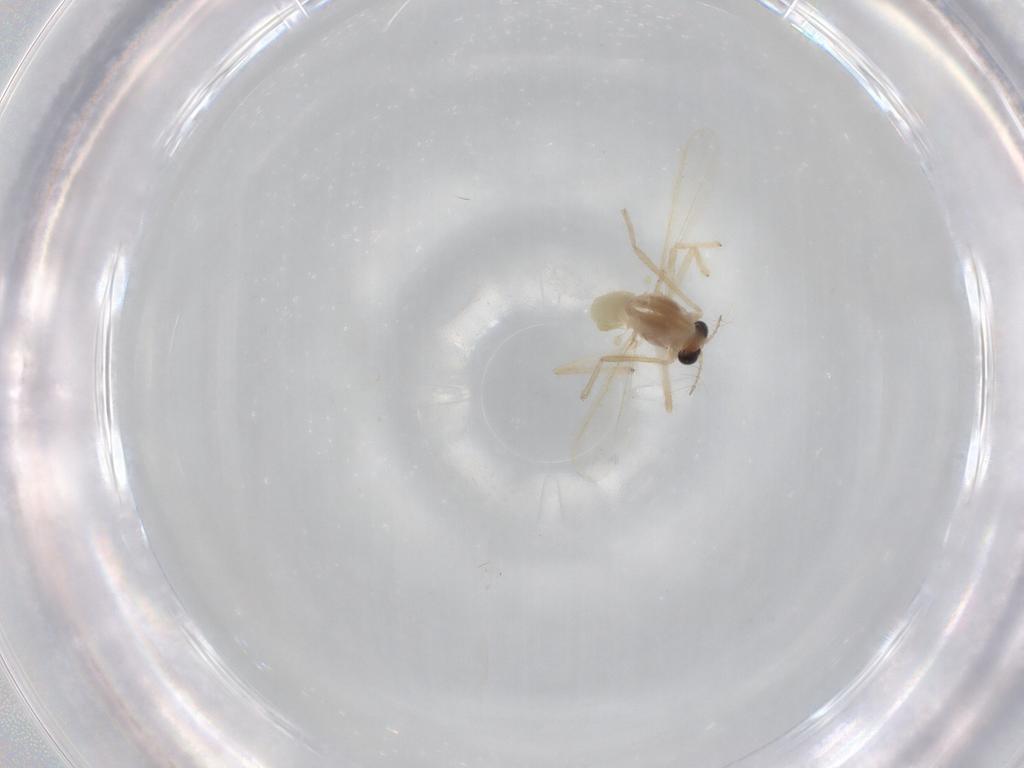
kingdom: Animalia
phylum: Arthropoda
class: Insecta
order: Diptera
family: Chironomidae
